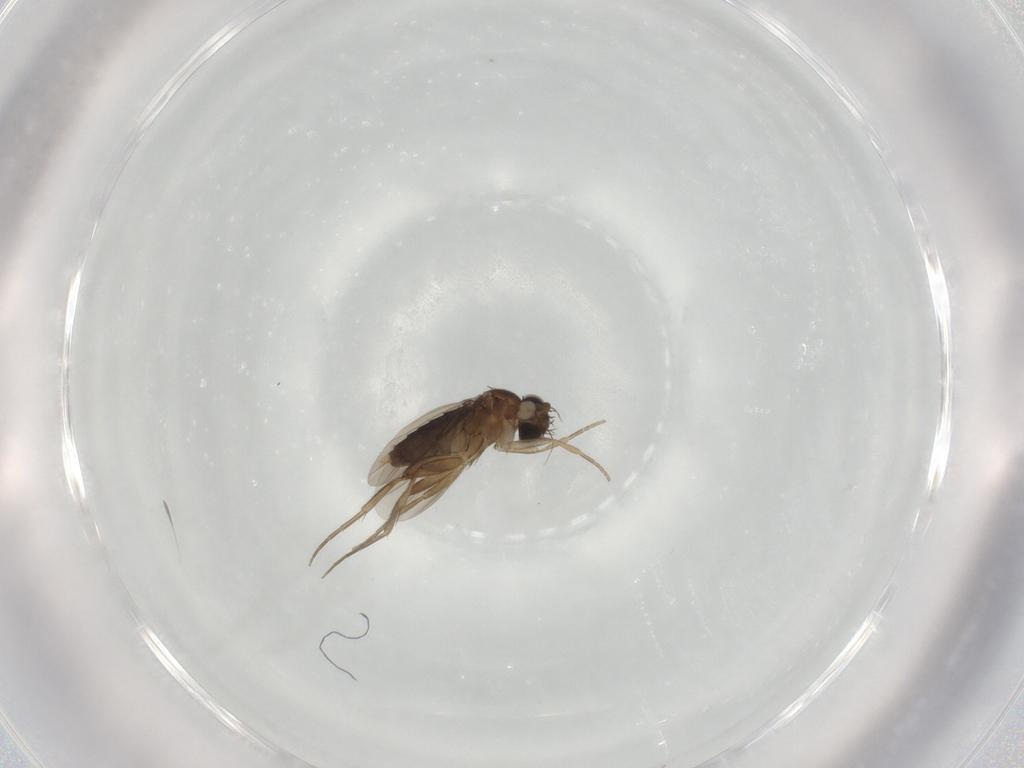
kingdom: Animalia
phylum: Arthropoda
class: Insecta
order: Diptera
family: Phoridae
